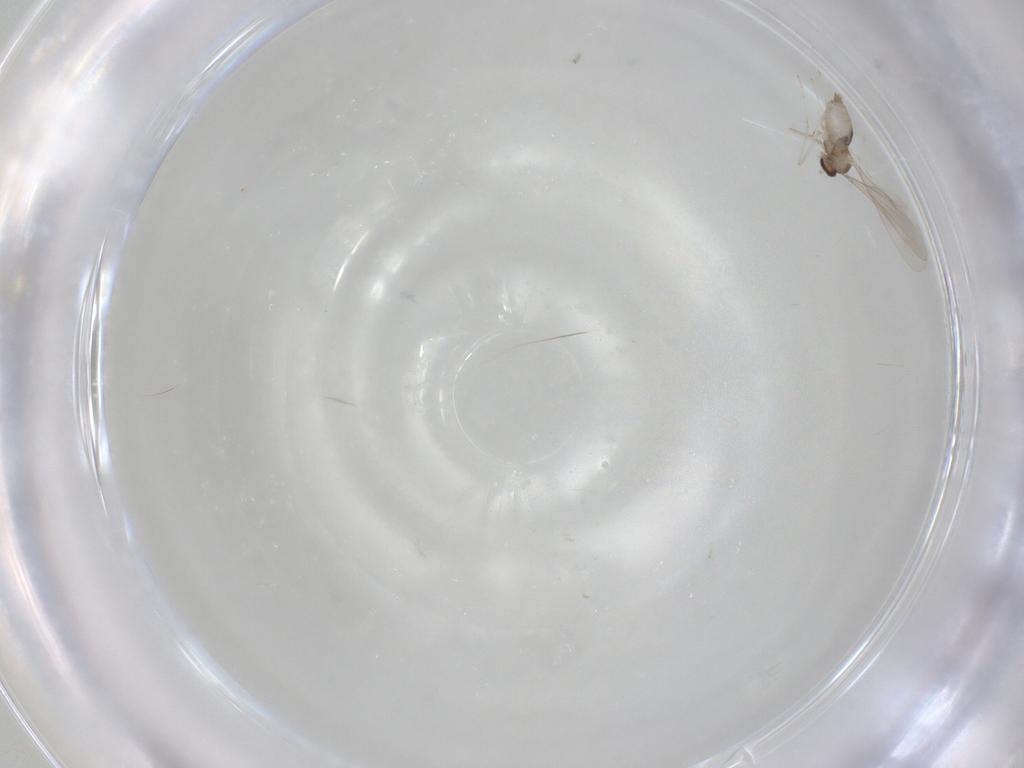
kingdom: Animalia
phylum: Arthropoda
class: Insecta
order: Diptera
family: Cecidomyiidae
